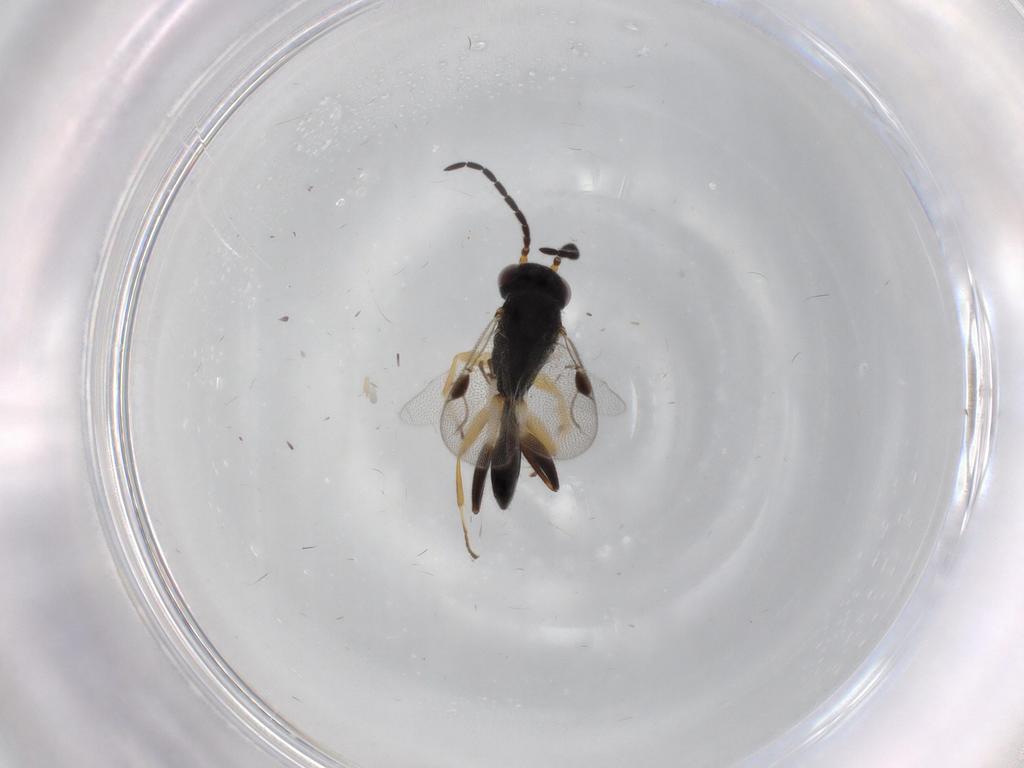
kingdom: Animalia
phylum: Arthropoda
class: Insecta
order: Hymenoptera
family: Dryinidae
